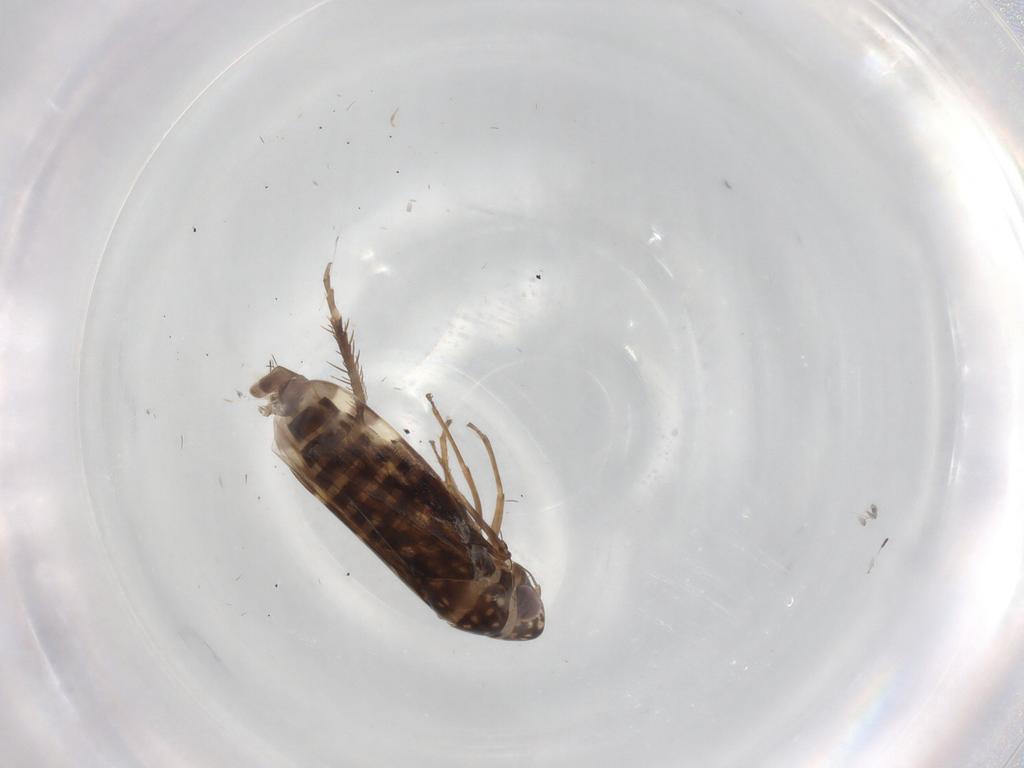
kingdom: Animalia
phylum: Arthropoda
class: Insecta
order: Hemiptera
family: Cicadellidae
